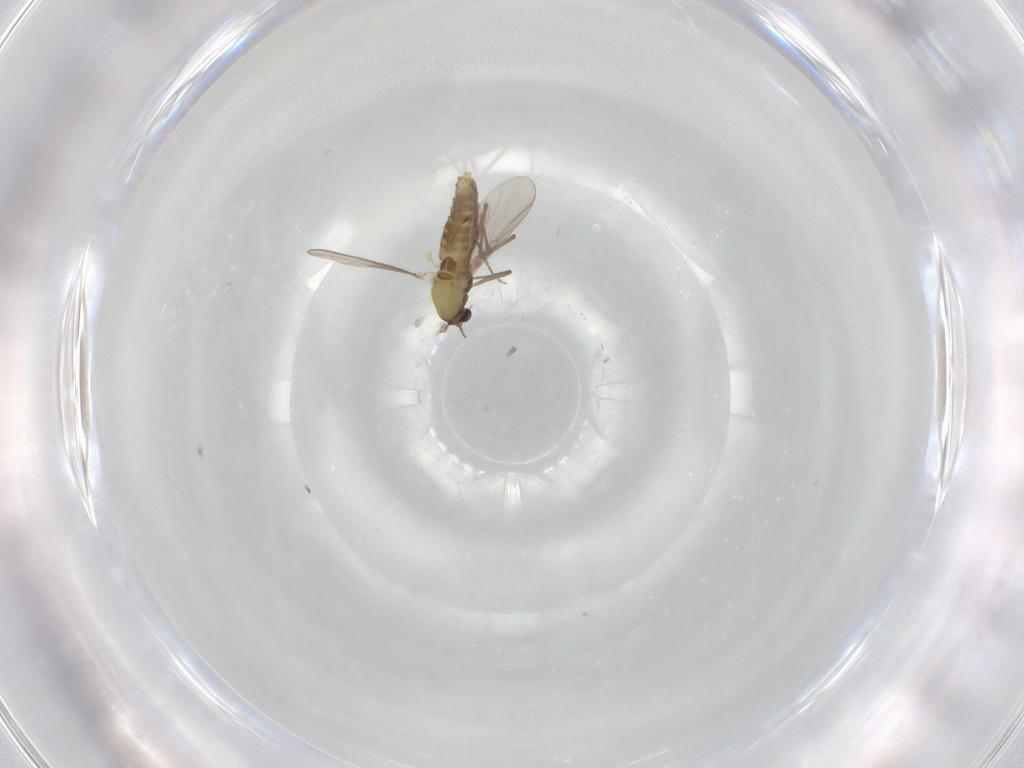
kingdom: Animalia
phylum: Arthropoda
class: Insecta
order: Diptera
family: Chironomidae
